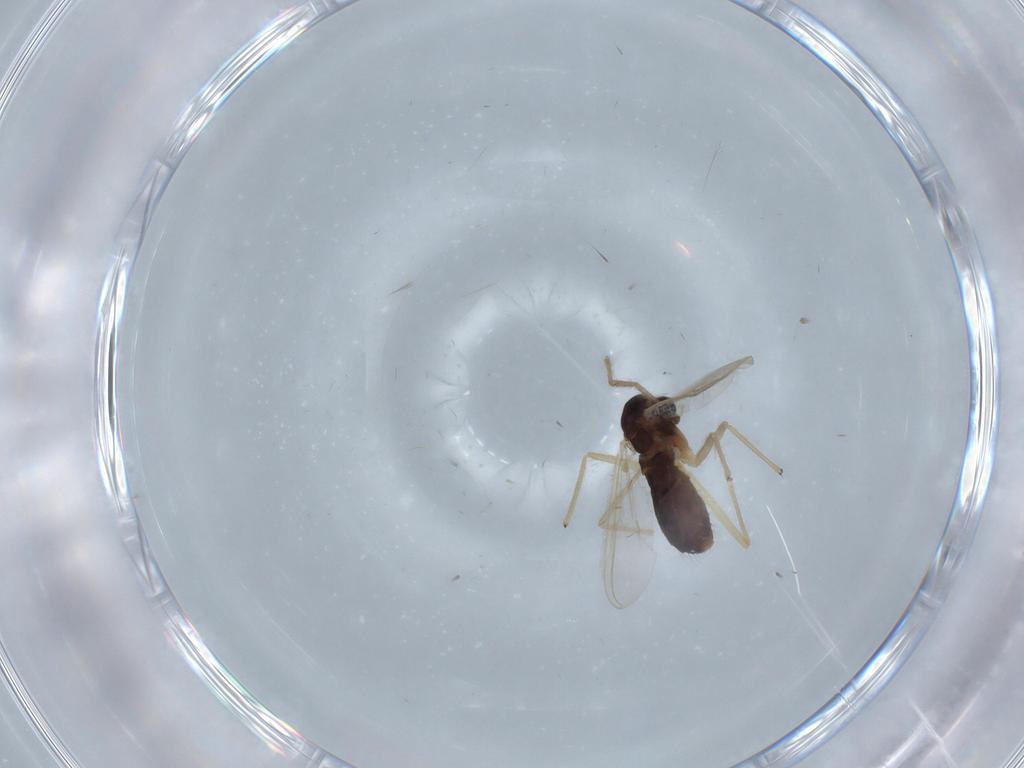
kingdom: Animalia
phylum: Arthropoda
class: Insecta
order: Diptera
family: Chironomidae
